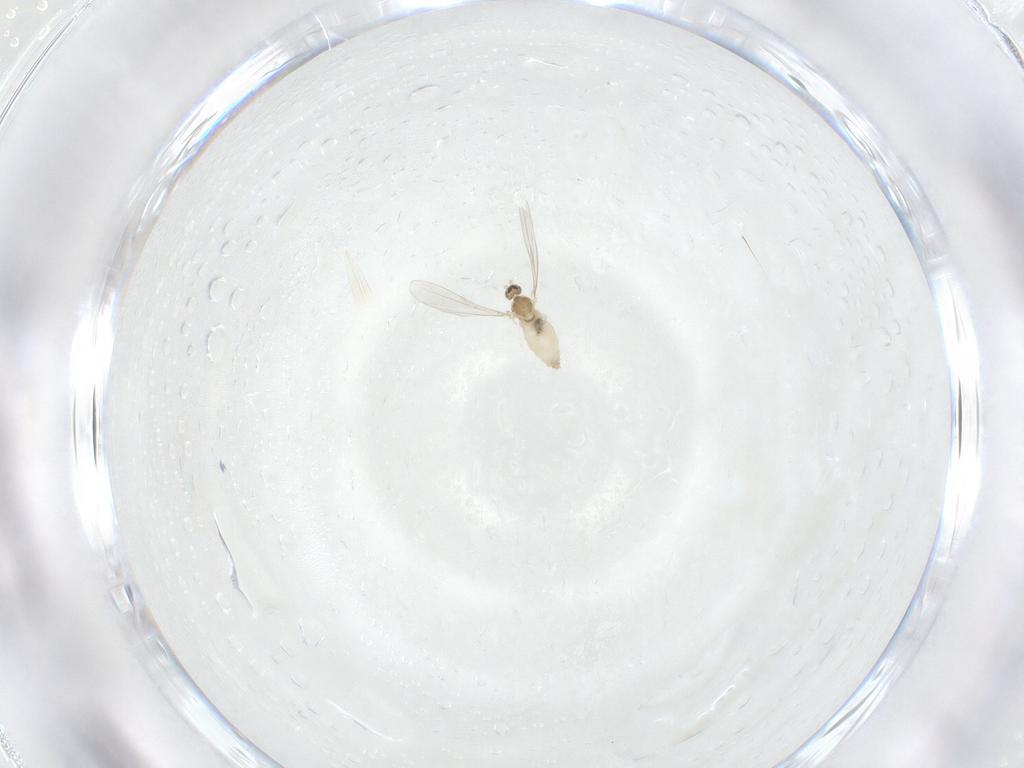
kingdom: Animalia
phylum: Arthropoda
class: Insecta
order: Diptera
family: Cecidomyiidae
